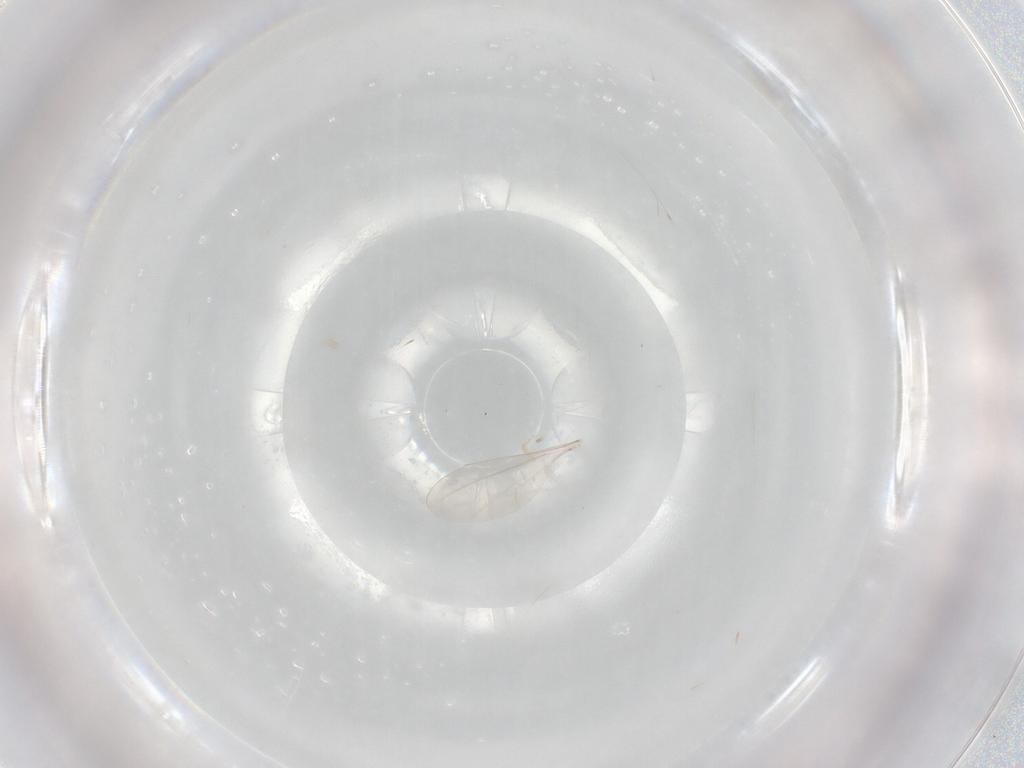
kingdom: Animalia
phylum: Arthropoda
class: Insecta
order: Diptera
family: Cecidomyiidae
